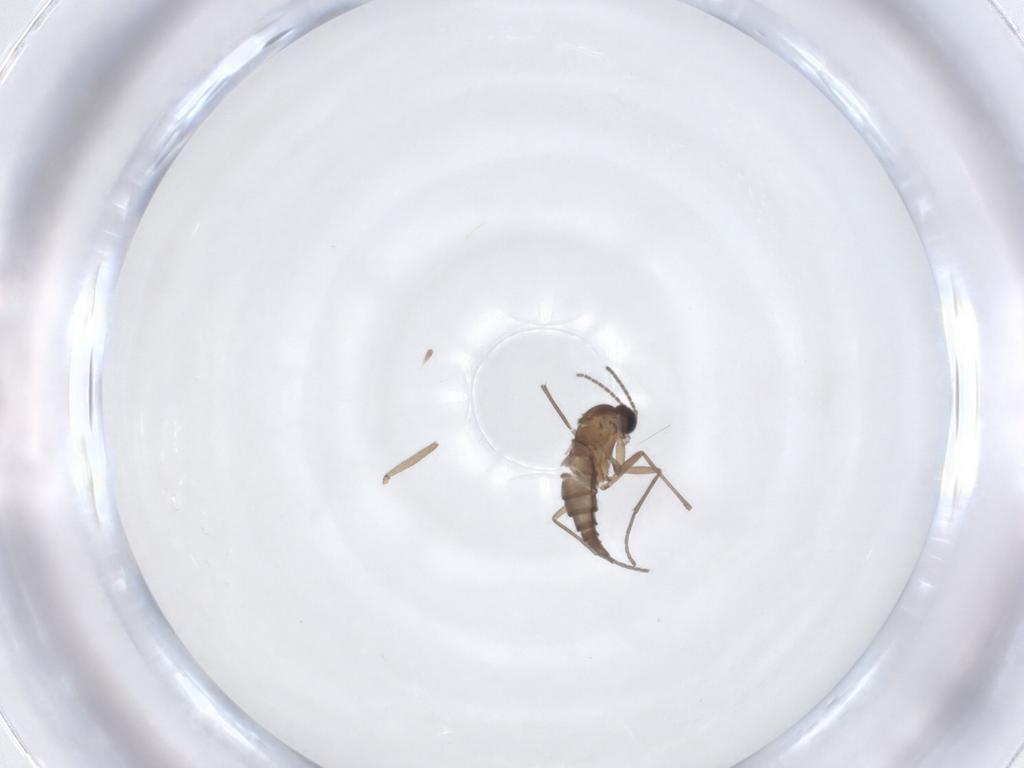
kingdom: Animalia
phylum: Arthropoda
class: Insecta
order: Diptera
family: Sciaridae
